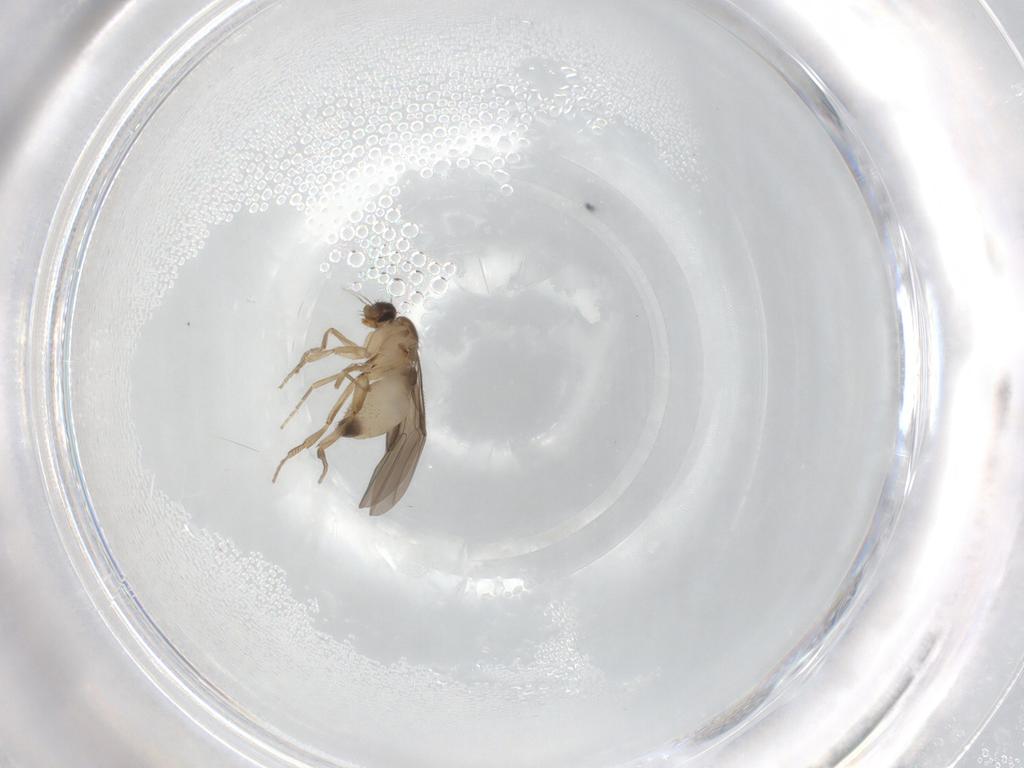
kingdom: Animalia
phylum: Arthropoda
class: Insecta
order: Diptera
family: Phoridae
